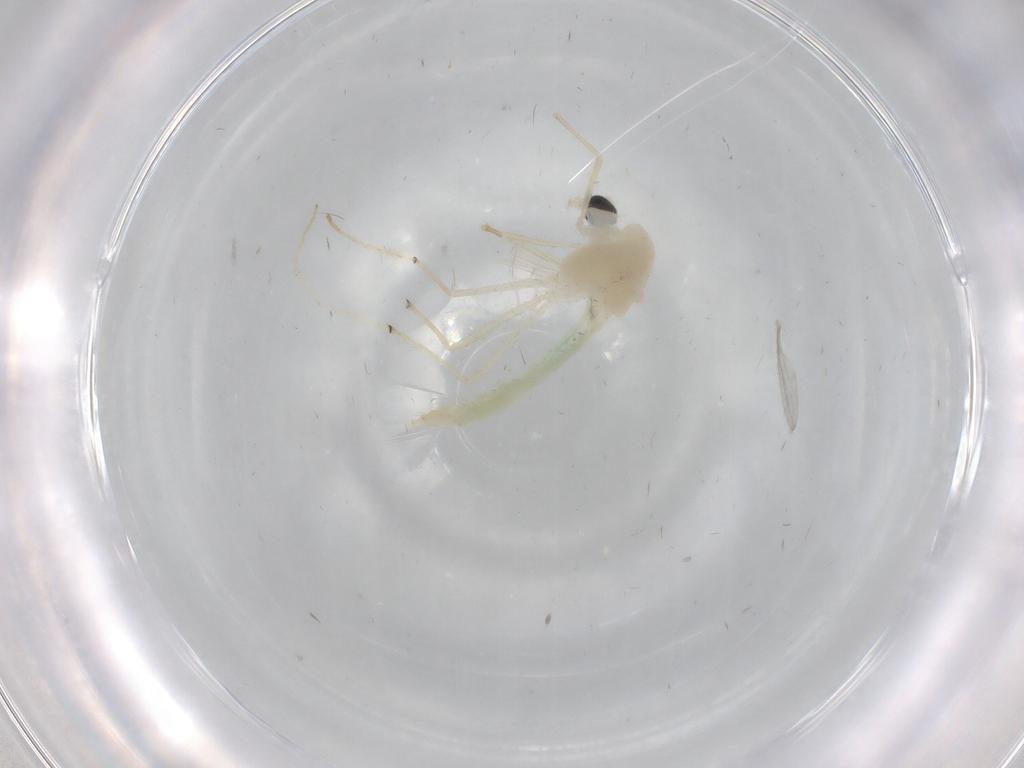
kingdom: Animalia
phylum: Arthropoda
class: Insecta
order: Diptera
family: Chironomidae
